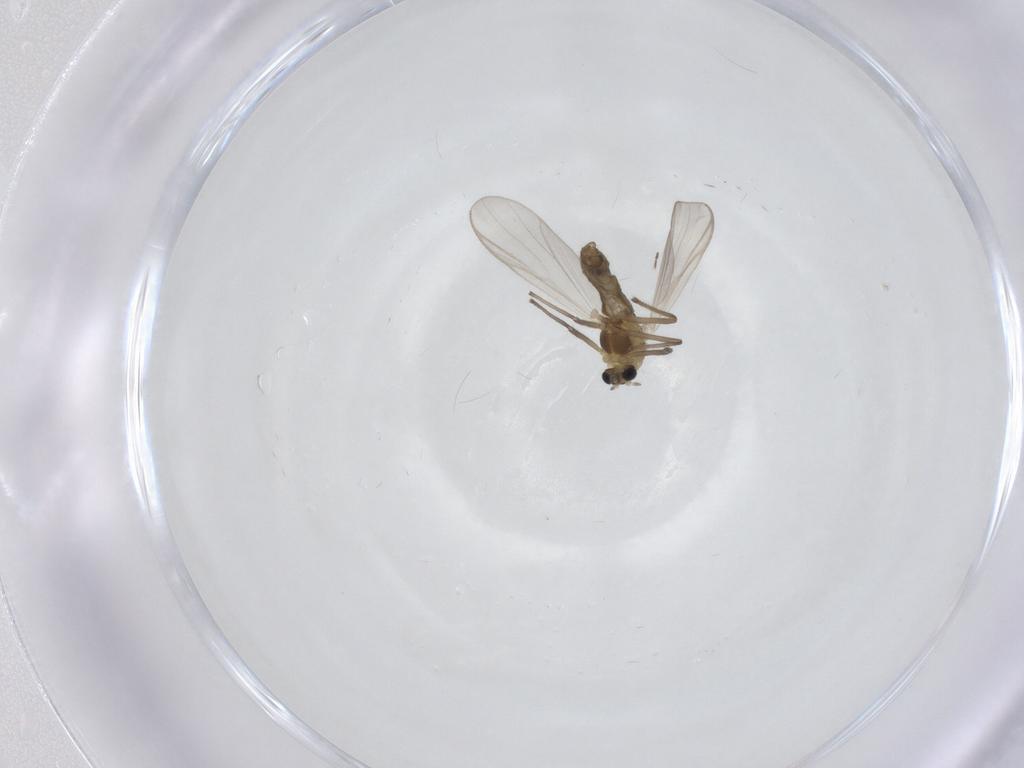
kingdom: Animalia
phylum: Arthropoda
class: Insecta
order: Diptera
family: Chironomidae
